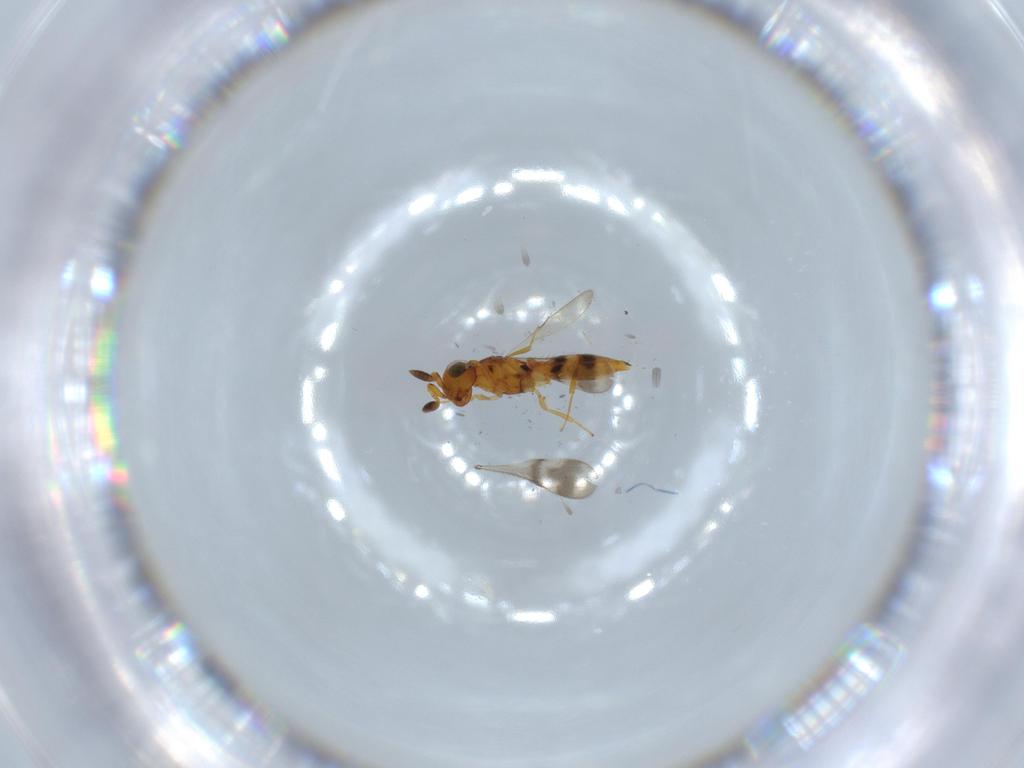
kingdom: Animalia
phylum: Arthropoda
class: Insecta
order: Hymenoptera
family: Scelionidae
